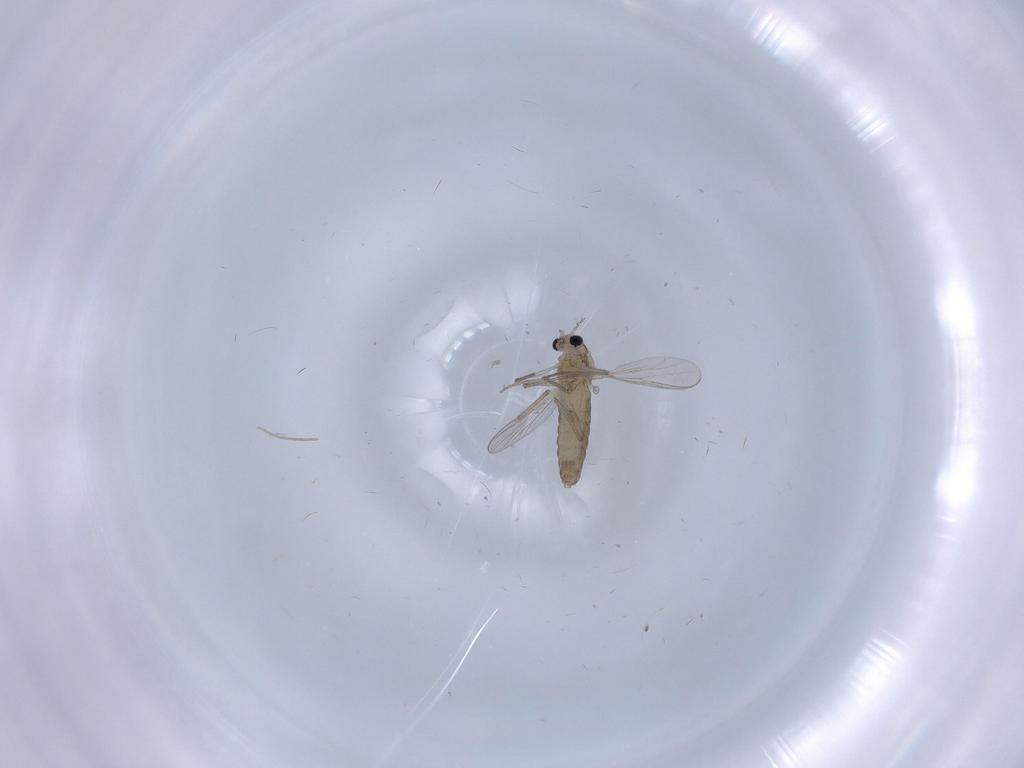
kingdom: Animalia
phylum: Arthropoda
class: Insecta
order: Diptera
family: Chironomidae
